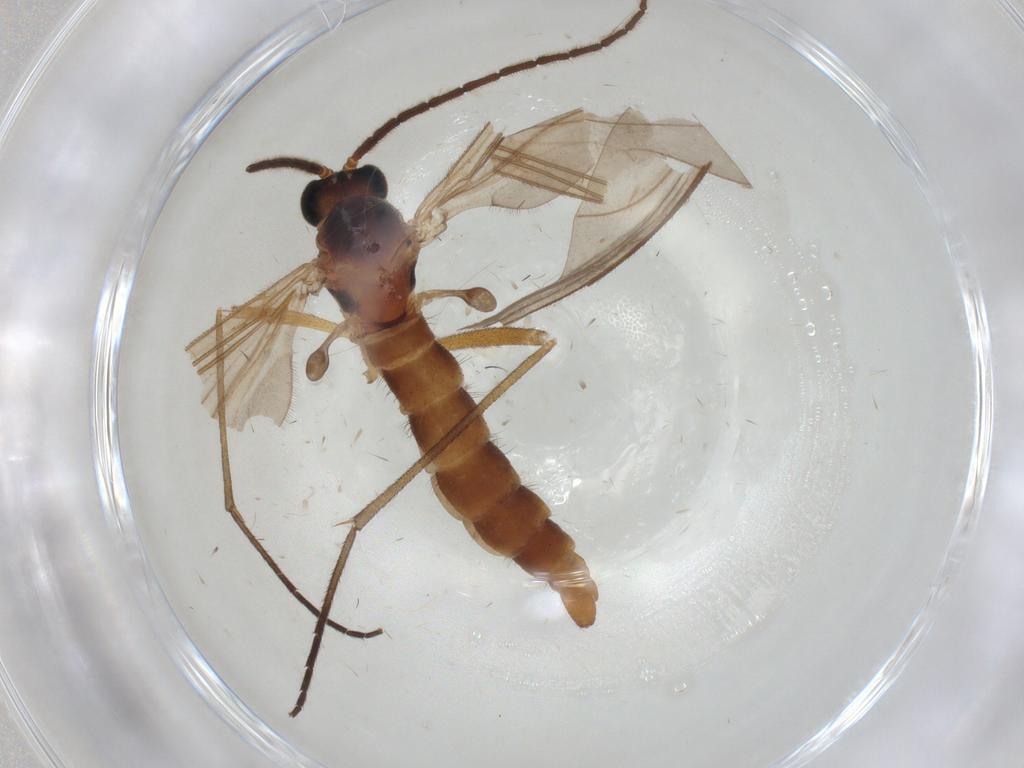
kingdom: Animalia
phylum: Arthropoda
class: Insecta
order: Diptera
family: Sciaridae
